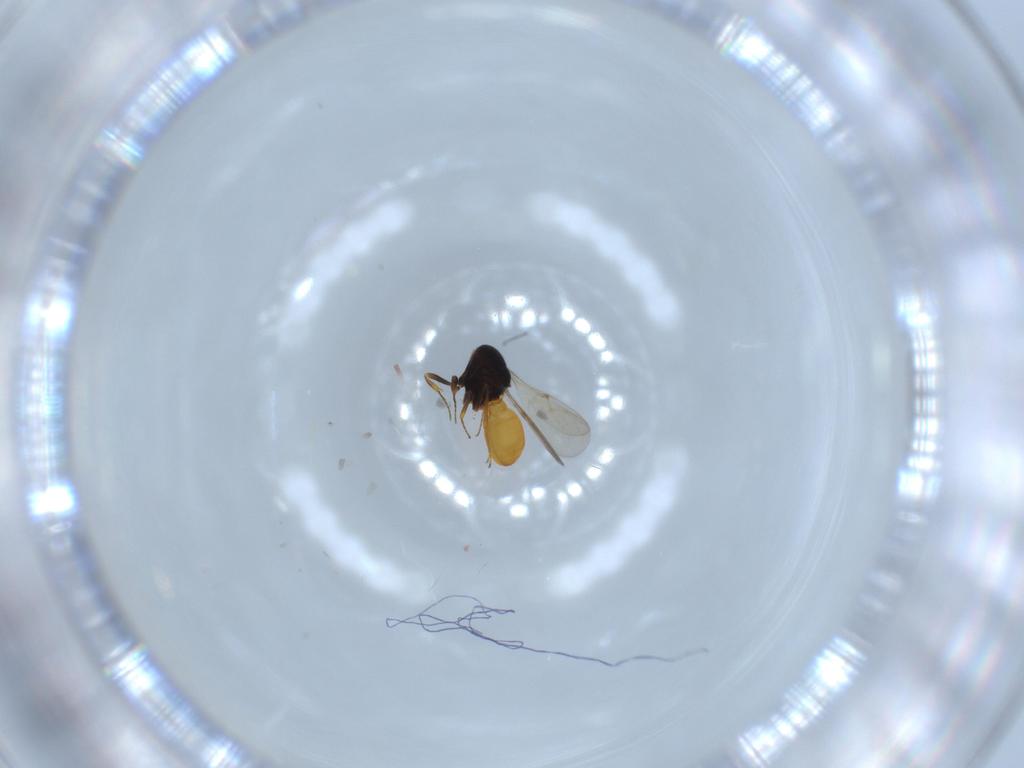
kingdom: Animalia
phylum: Arthropoda
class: Insecta
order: Hymenoptera
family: Scelionidae
